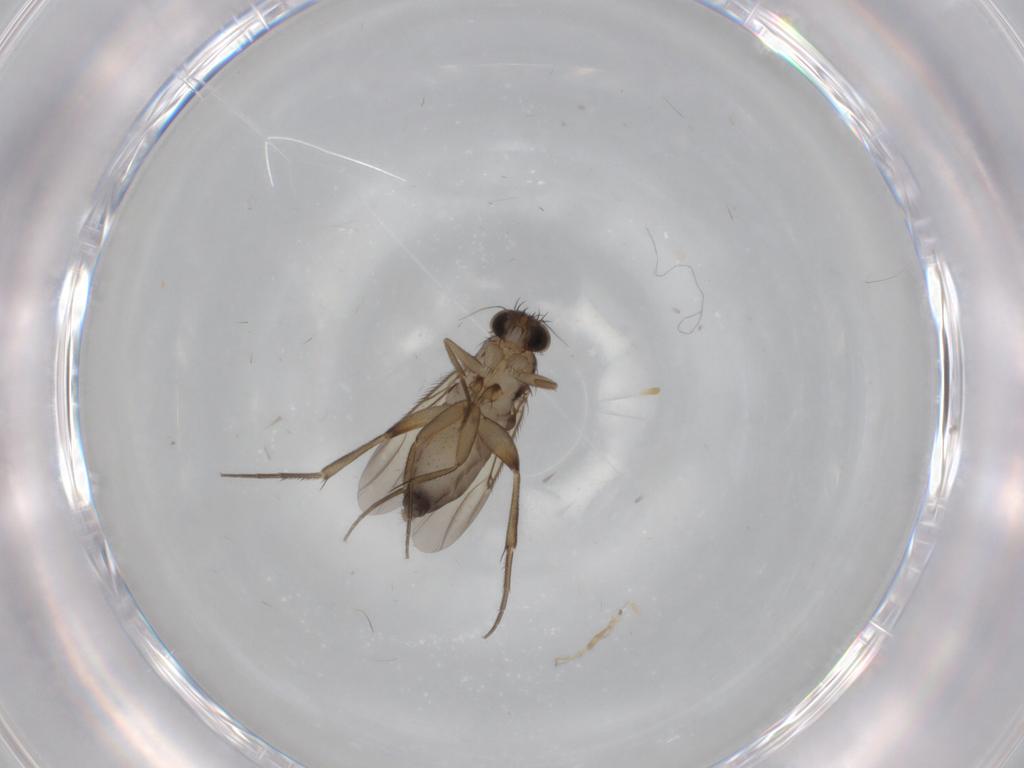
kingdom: Animalia
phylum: Arthropoda
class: Insecta
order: Diptera
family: Phoridae
